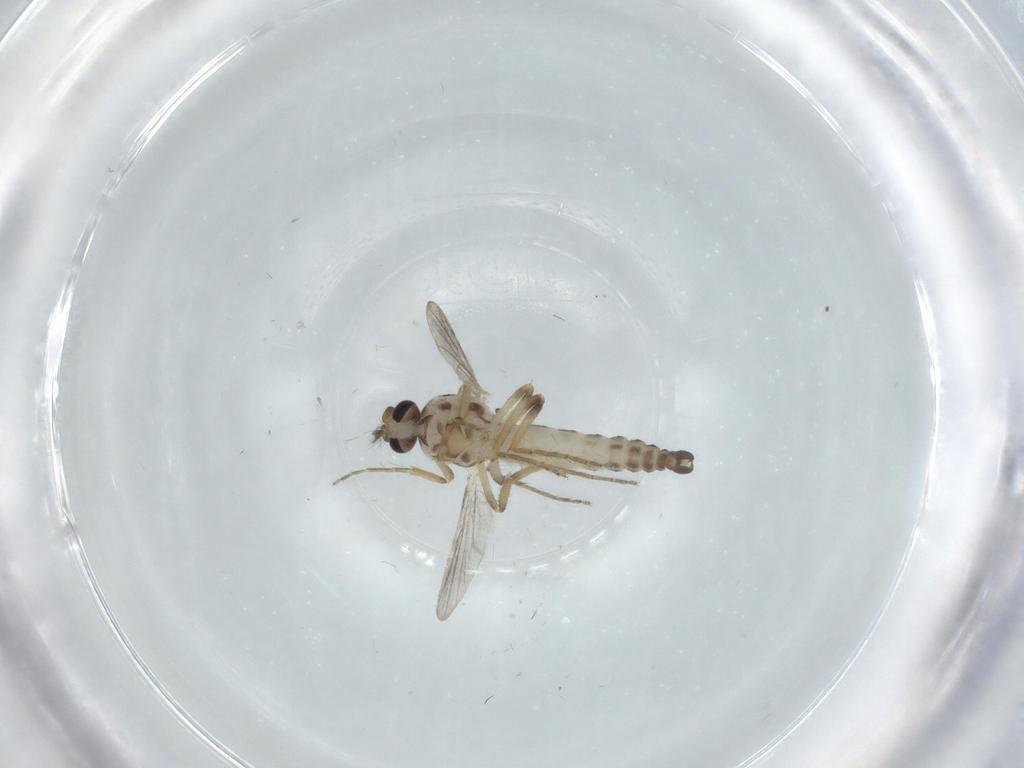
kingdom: Animalia
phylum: Arthropoda
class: Insecta
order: Diptera
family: Ceratopogonidae
